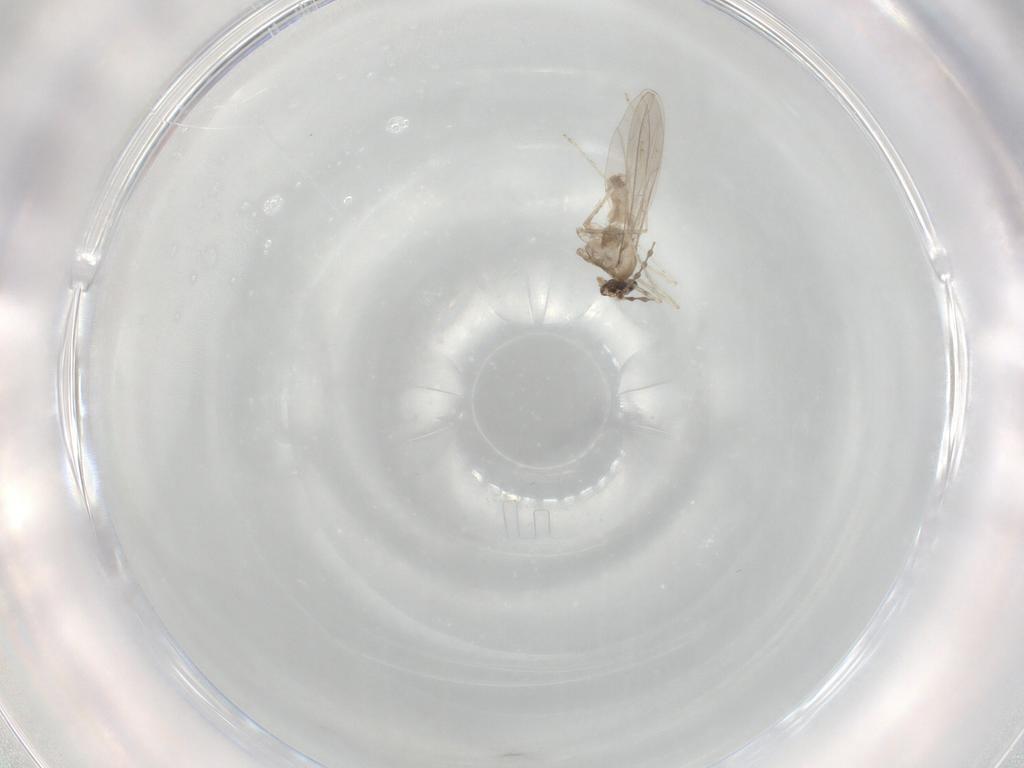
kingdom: Animalia
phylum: Arthropoda
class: Insecta
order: Diptera
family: Cecidomyiidae
